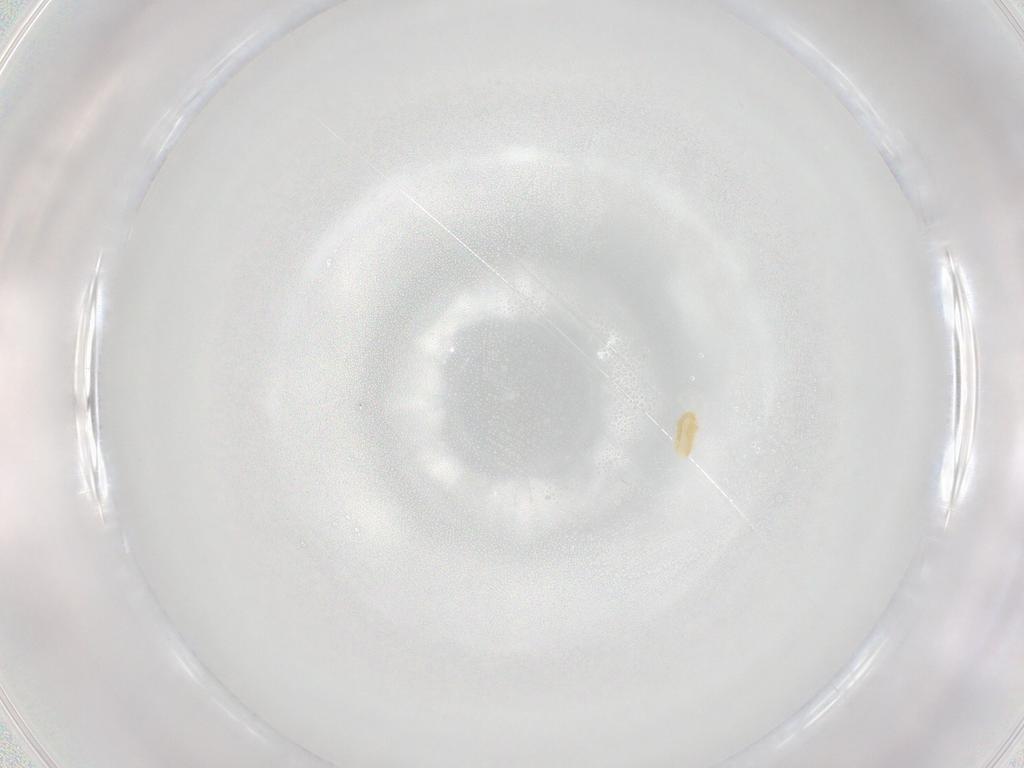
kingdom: Animalia
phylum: Arthropoda
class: Arachnida
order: Trombidiformes
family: Eupodidae
